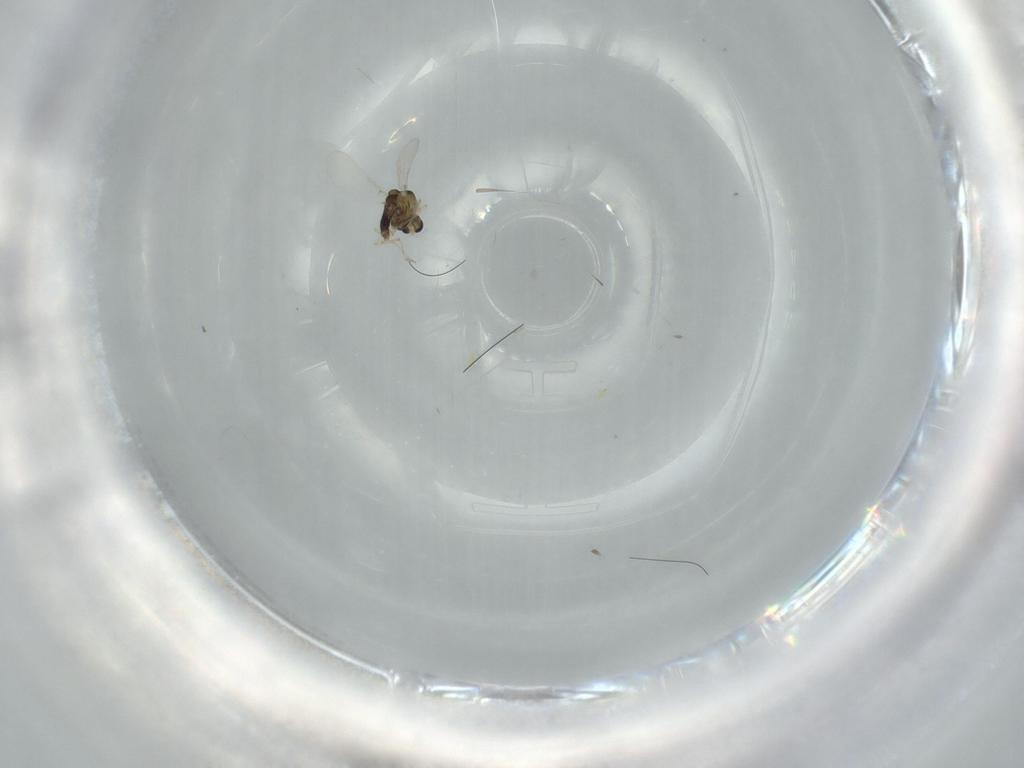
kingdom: Animalia
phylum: Arthropoda
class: Insecta
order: Diptera
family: Chironomidae
